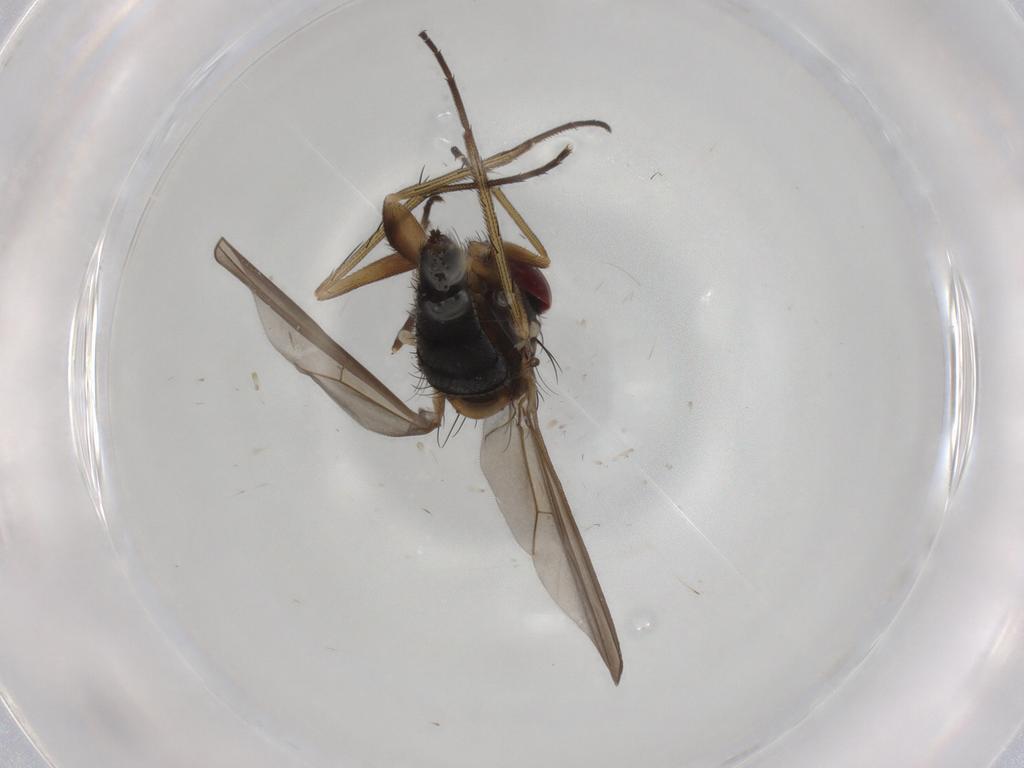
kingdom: Animalia
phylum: Arthropoda
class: Insecta
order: Diptera
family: Dolichopodidae
